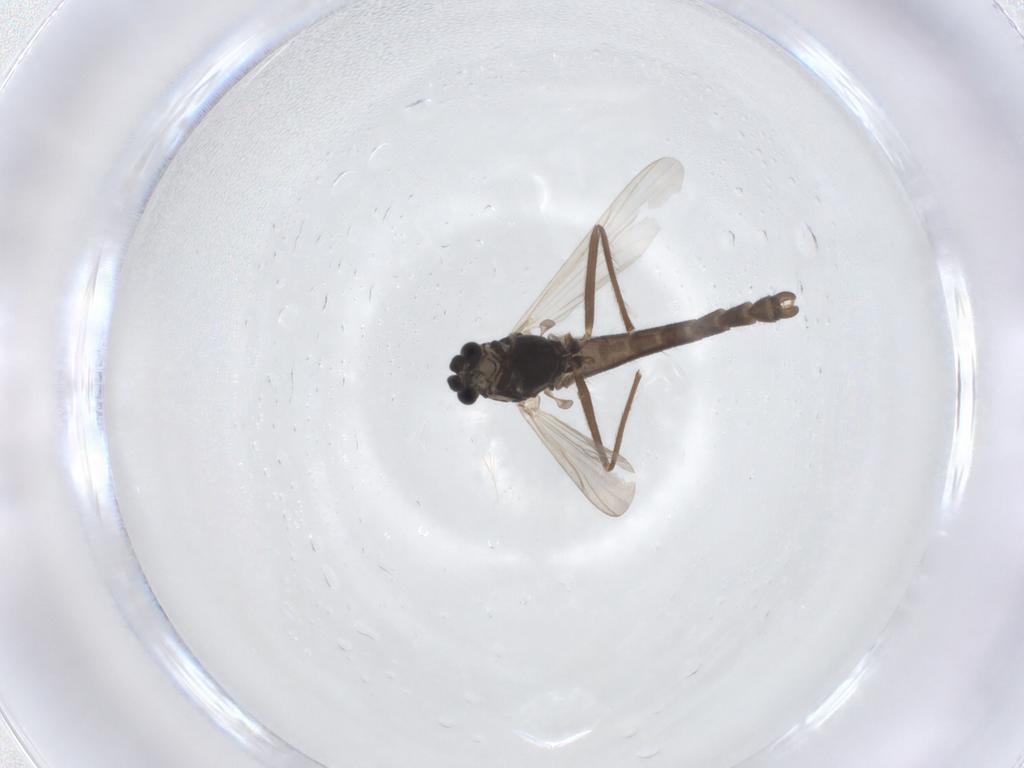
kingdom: Animalia
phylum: Arthropoda
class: Insecta
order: Diptera
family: Chironomidae
